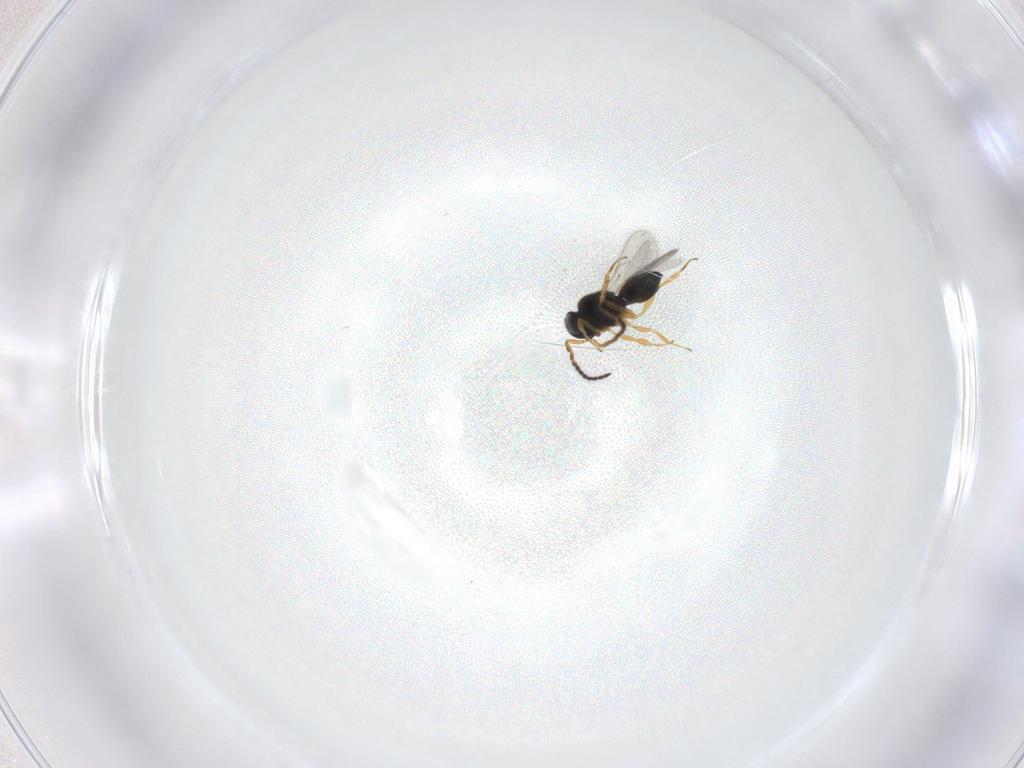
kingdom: Animalia
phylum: Arthropoda
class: Insecta
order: Hymenoptera
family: Scelionidae
